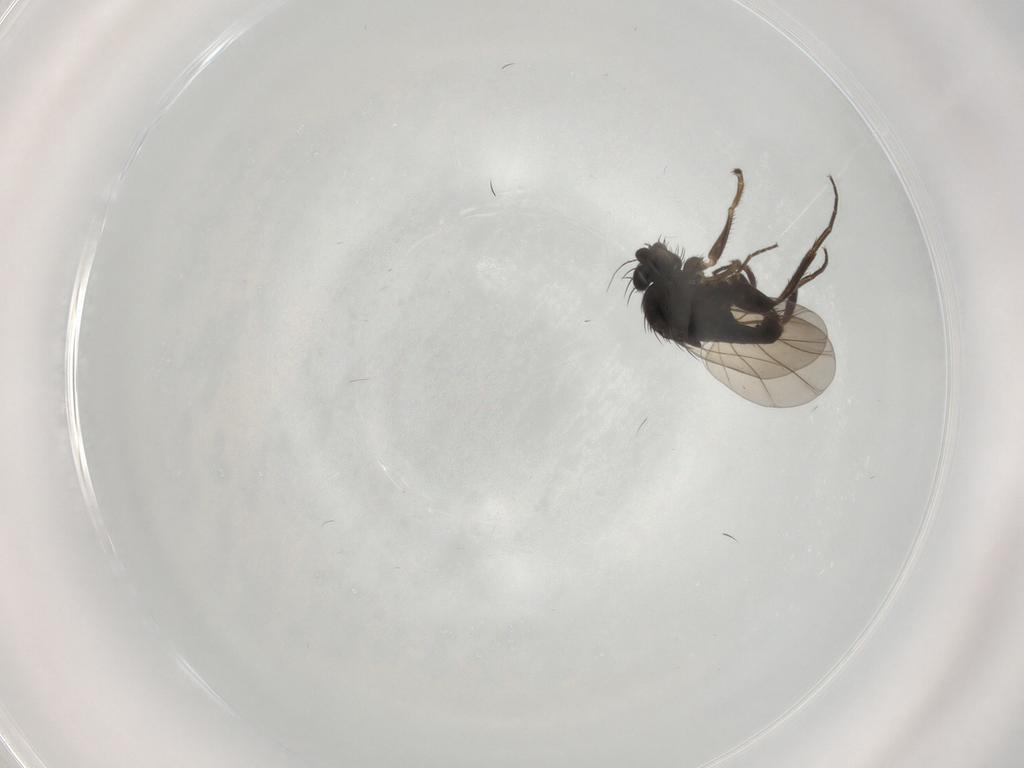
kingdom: Animalia
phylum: Arthropoda
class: Insecta
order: Diptera
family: Phoridae
